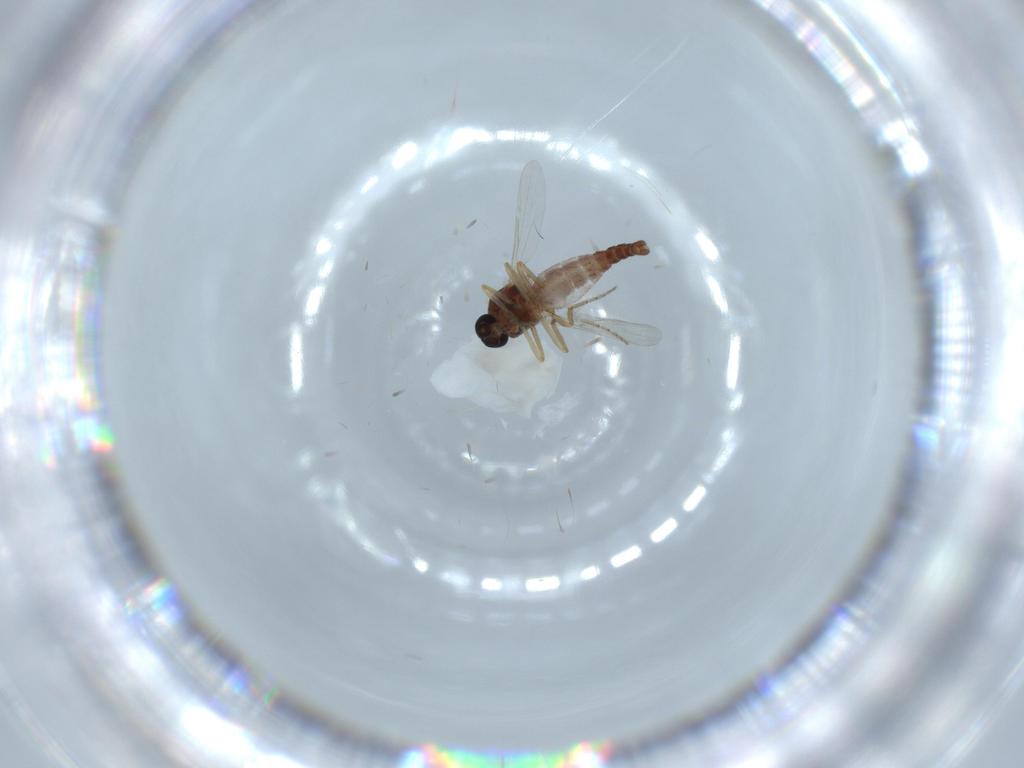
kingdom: Animalia
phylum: Arthropoda
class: Insecta
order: Diptera
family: Ceratopogonidae
